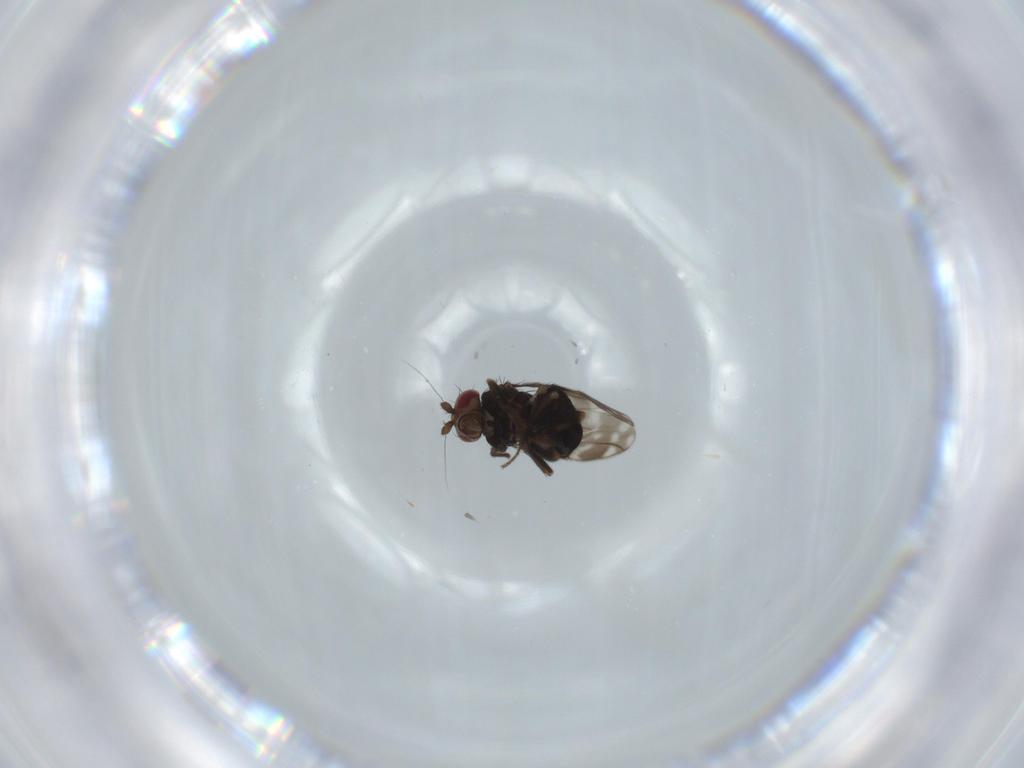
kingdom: Animalia
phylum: Arthropoda
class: Insecta
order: Diptera
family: Sphaeroceridae
